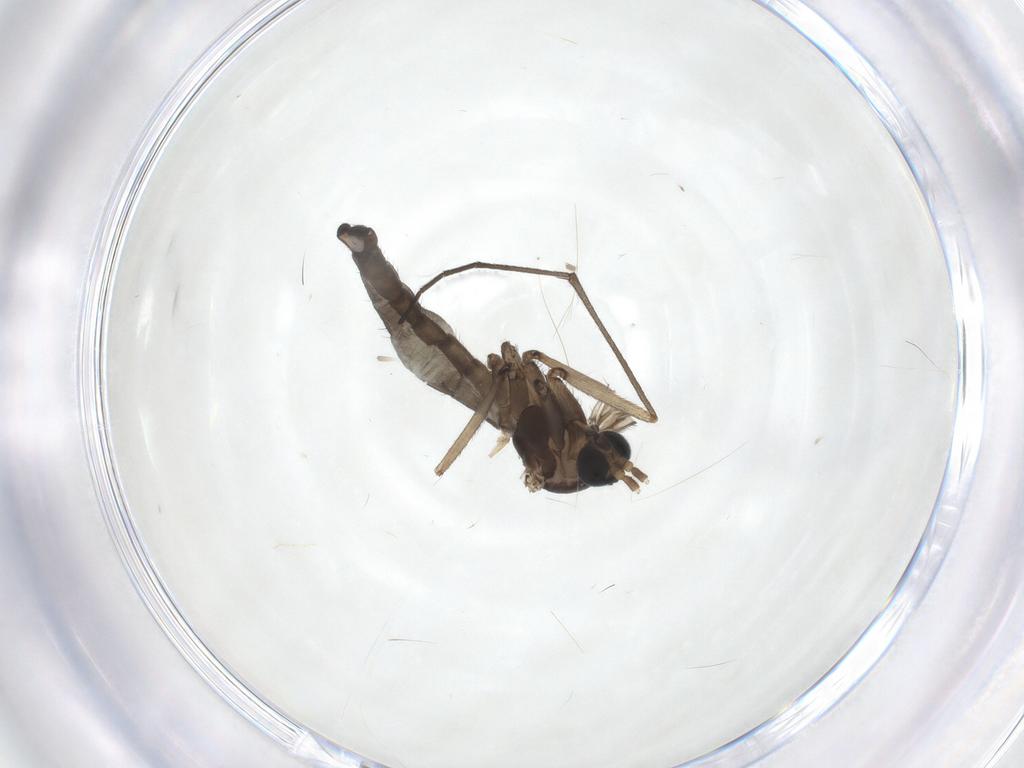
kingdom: Animalia
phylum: Arthropoda
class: Insecta
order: Diptera
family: Sciaridae
